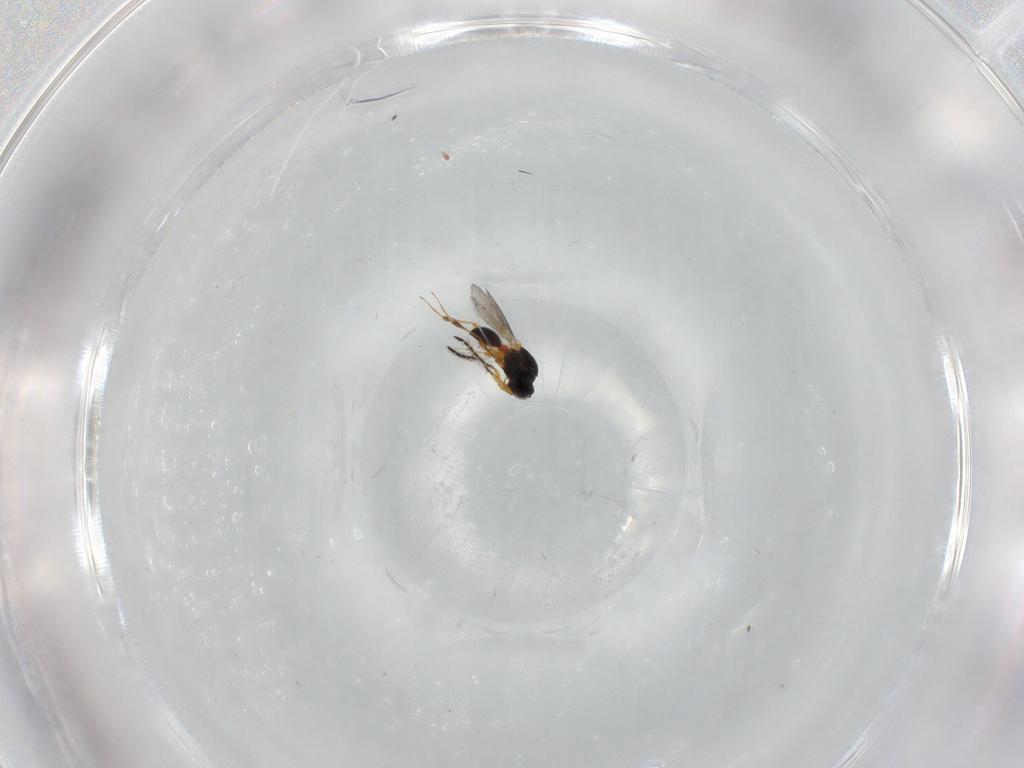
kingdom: Animalia
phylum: Arthropoda
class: Insecta
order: Hymenoptera
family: Platygastridae
